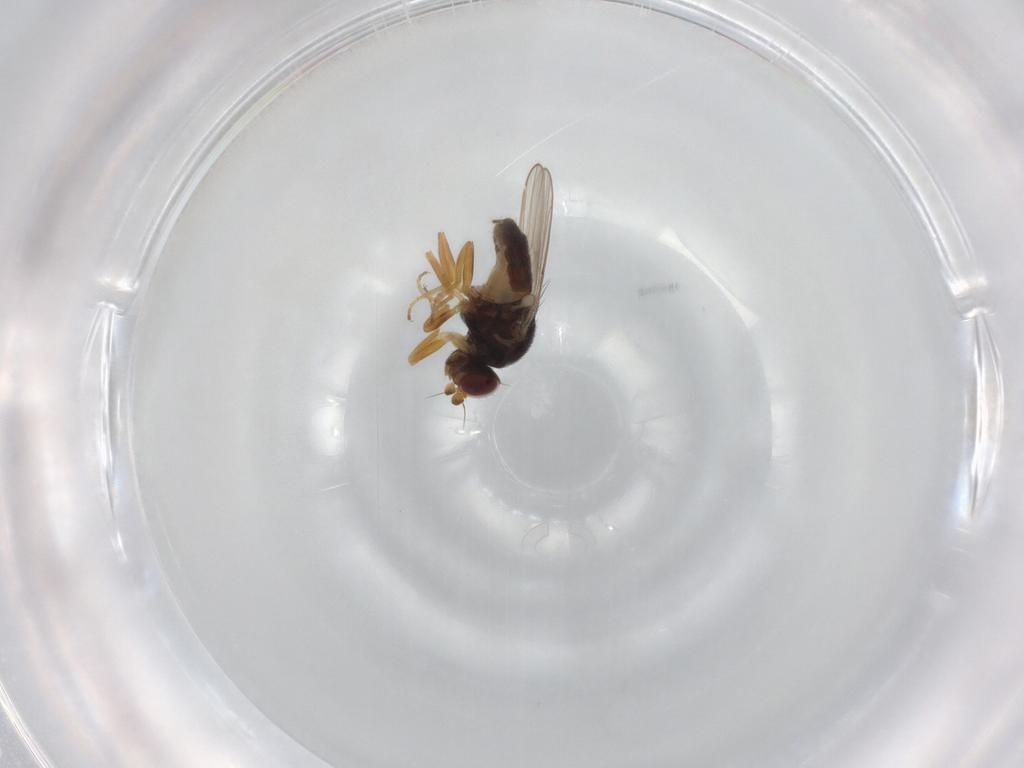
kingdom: Animalia
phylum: Arthropoda
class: Insecta
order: Diptera
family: Chloropidae
